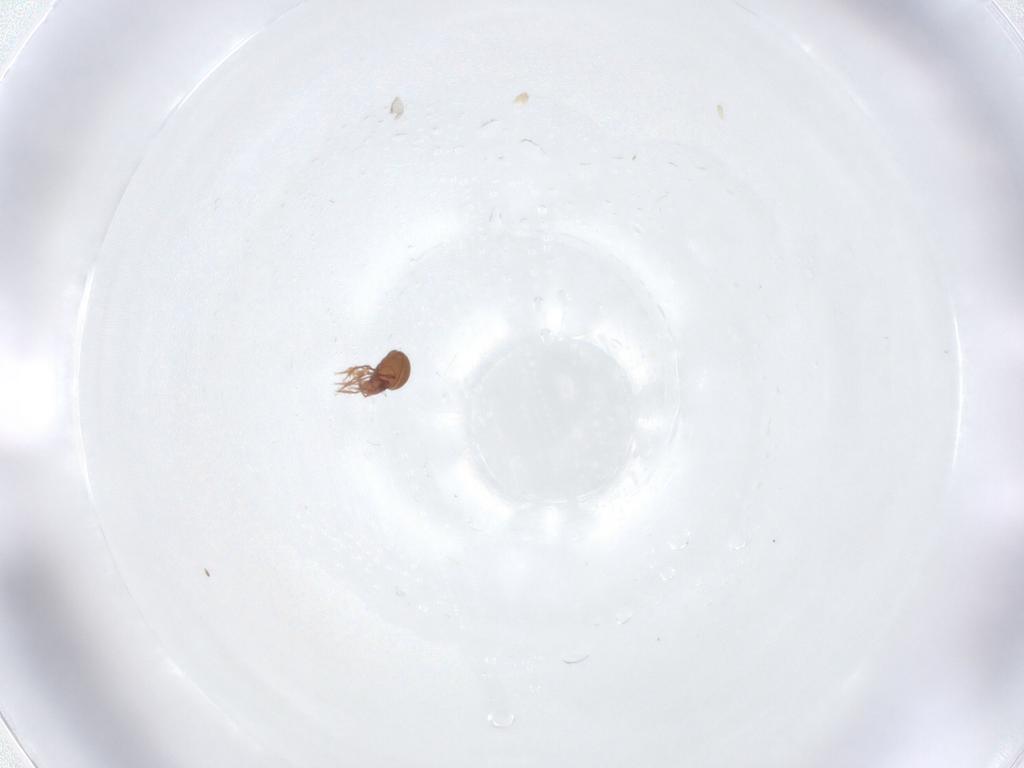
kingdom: Animalia
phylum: Arthropoda
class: Arachnida
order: Sarcoptiformes
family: Oppiidae
